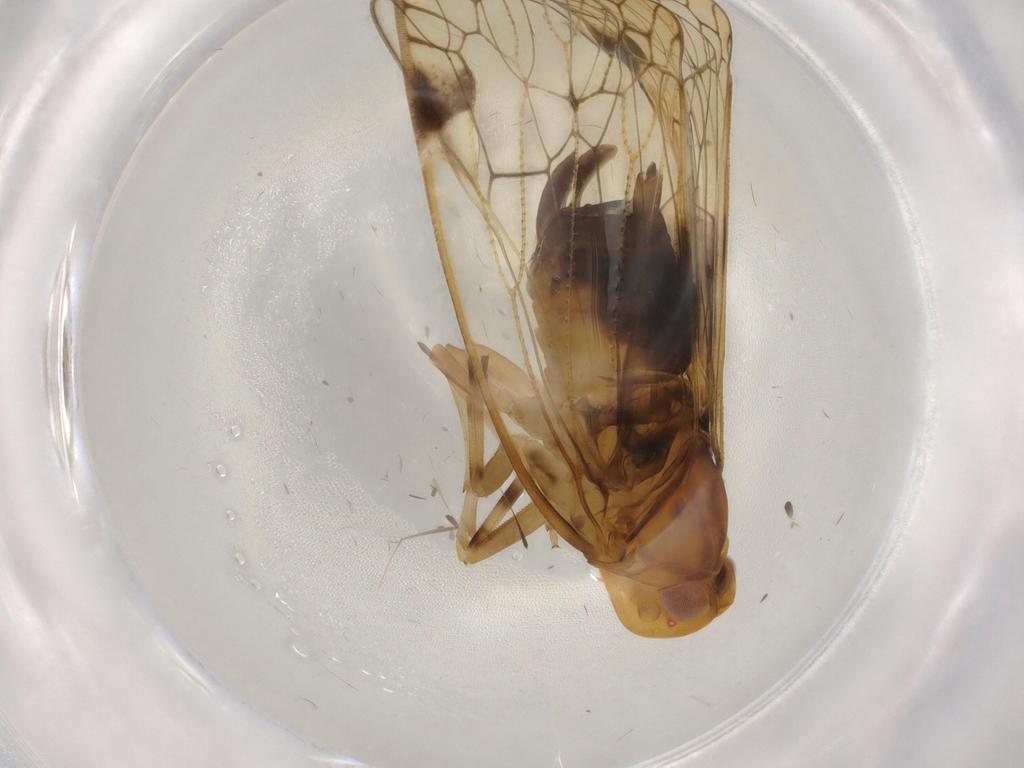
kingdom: Animalia
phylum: Arthropoda
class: Insecta
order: Hemiptera
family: Cixiidae
